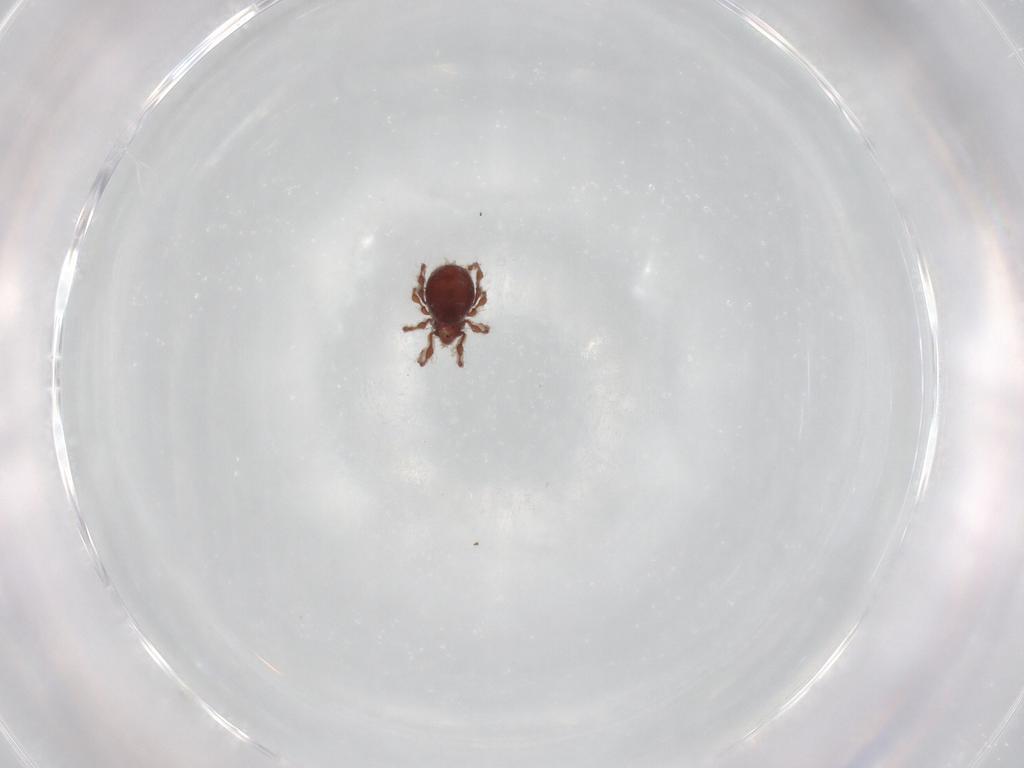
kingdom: Animalia
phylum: Arthropoda
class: Arachnida
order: Sarcoptiformes
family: Damaeidae
